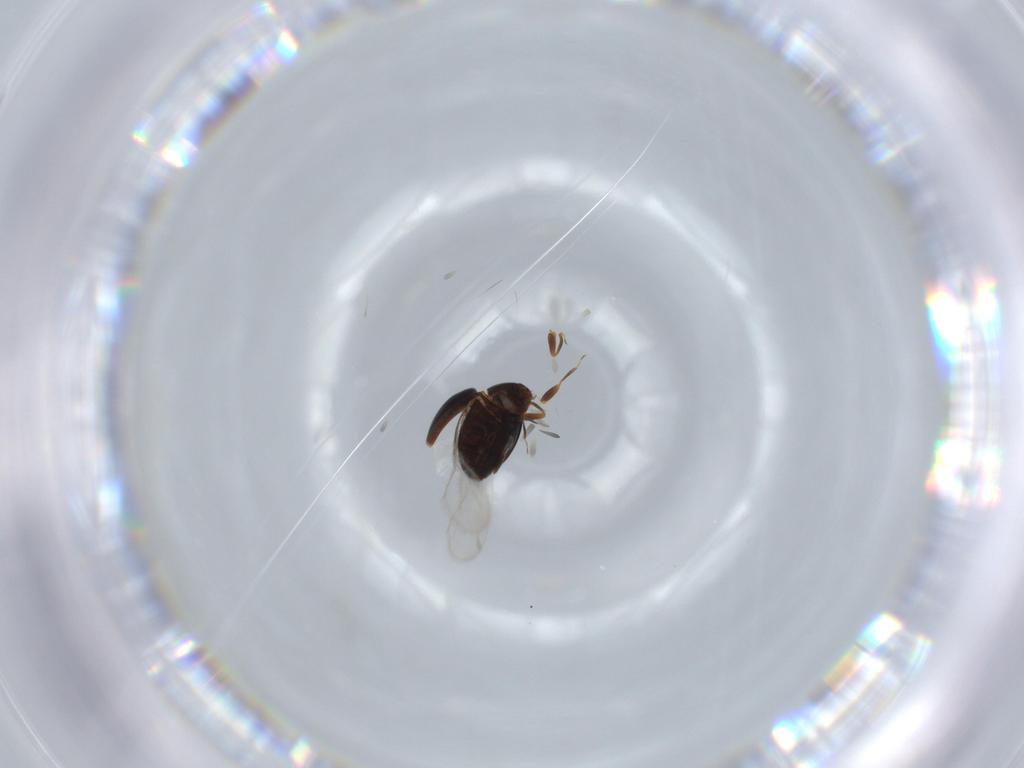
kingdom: Animalia
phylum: Arthropoda
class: Insecta
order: Coleoptera
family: Corylophidae
